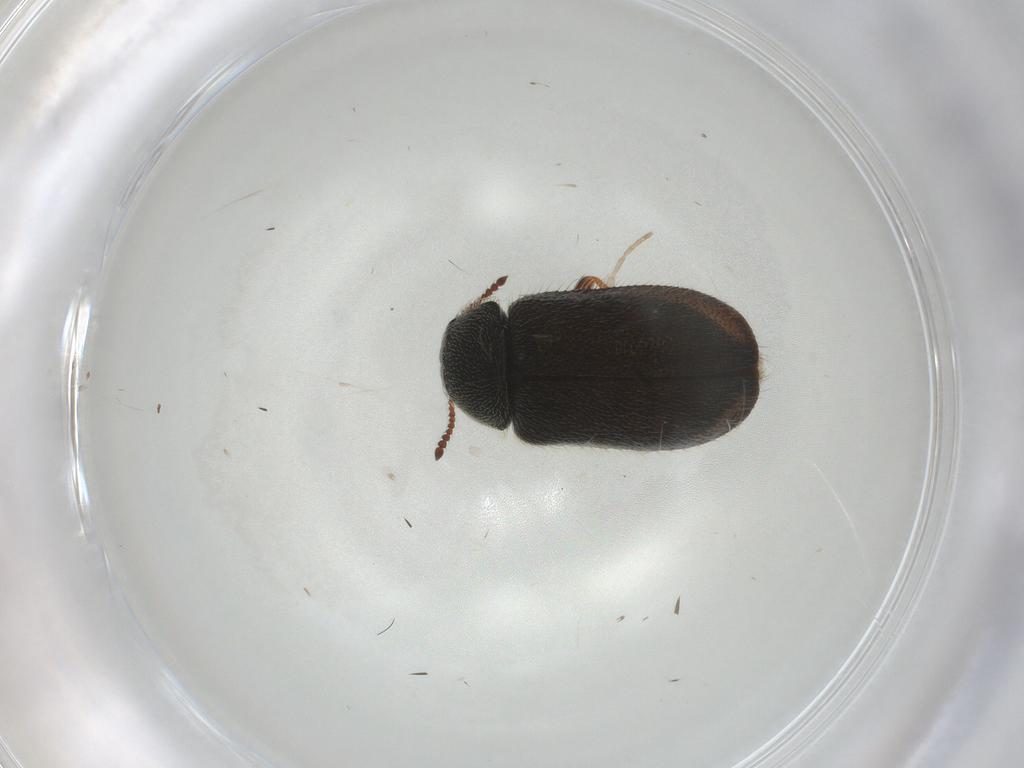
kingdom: Animalia
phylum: Arthropoda
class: Insecta
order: Coleoptera
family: Melyridae
